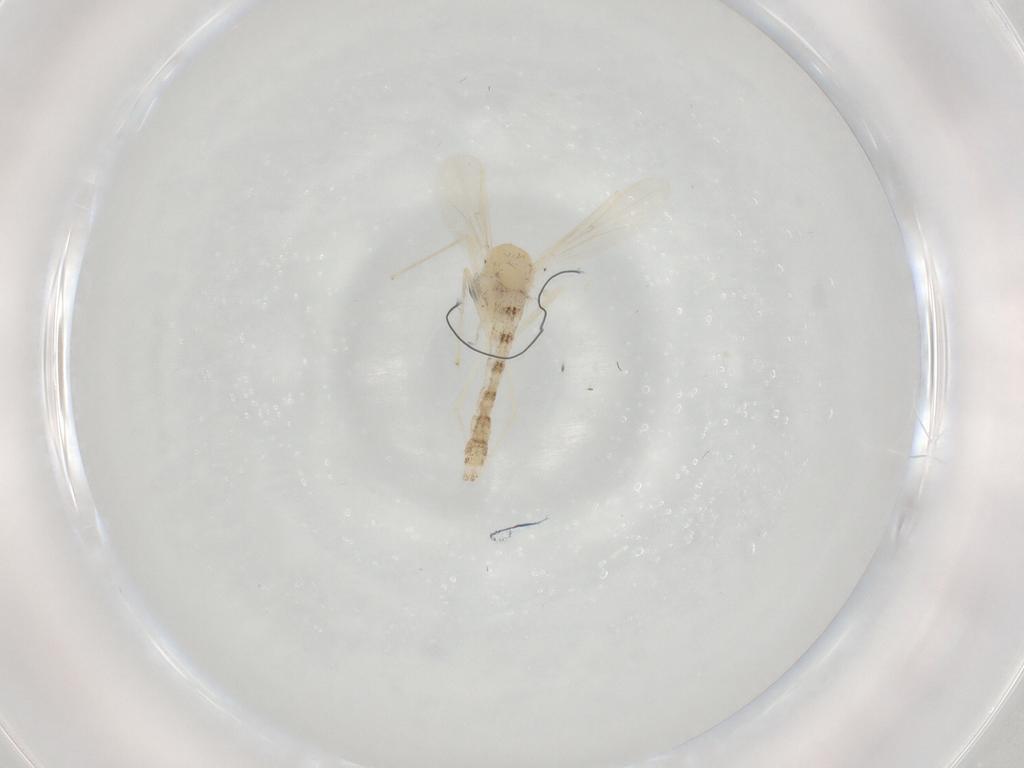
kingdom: Animalia
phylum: Arthropoda
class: Insecta
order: Diptera
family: Chironomidae
